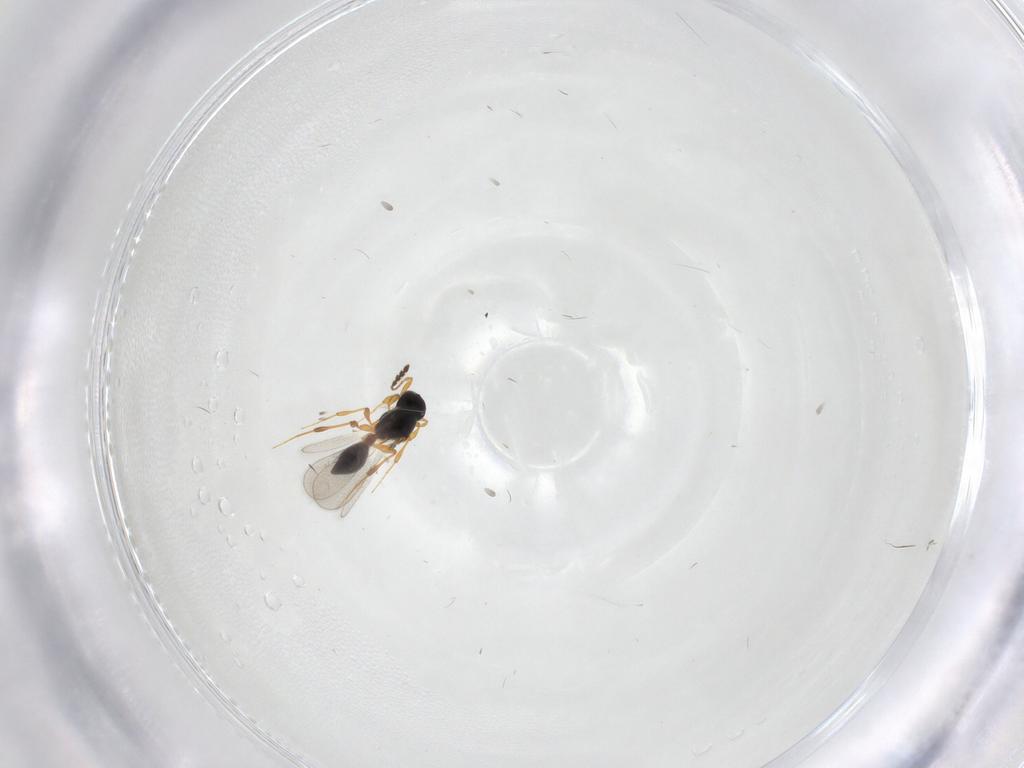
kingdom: Animalia
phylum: Arthropoda
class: Insecta
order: Hymenoptera
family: Platygastridae
